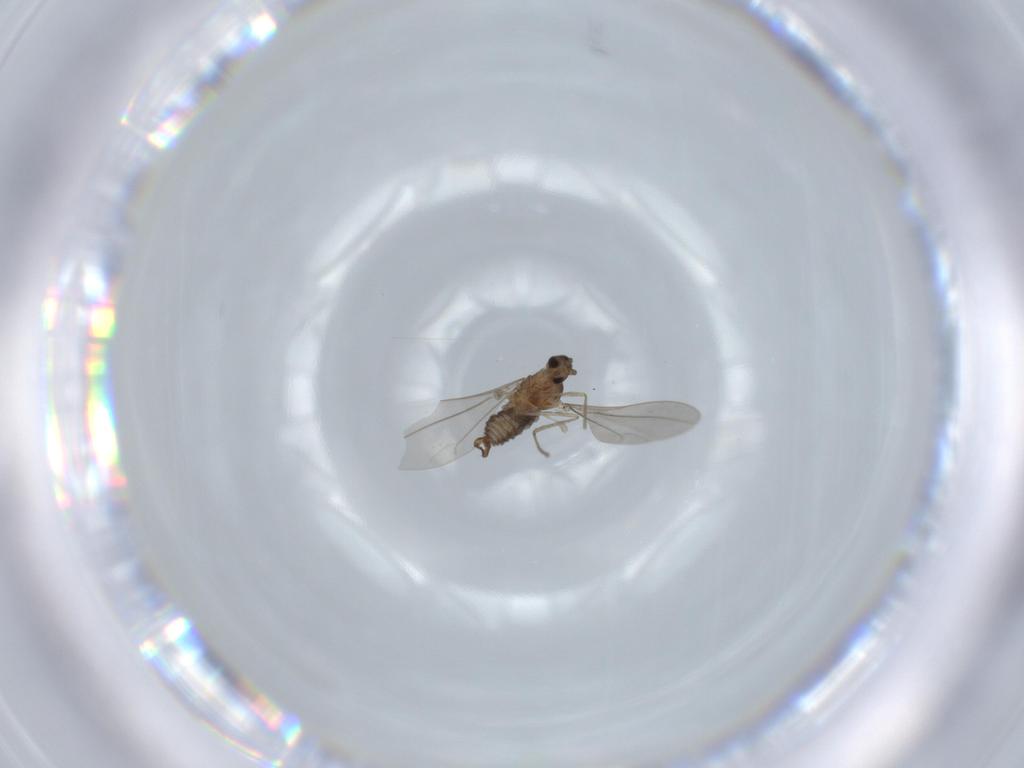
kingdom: Animalia
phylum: Arthropoda
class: Insecta
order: Diptera
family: Cecidomyiidae
